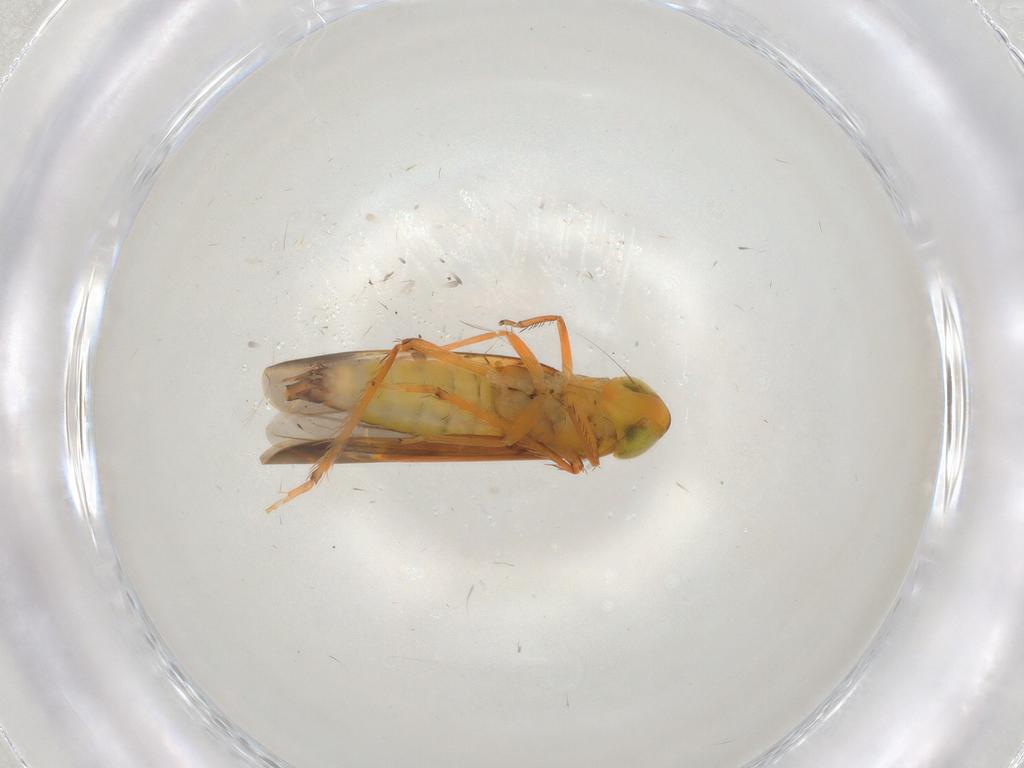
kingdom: Animalia
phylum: Arthropoda
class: Insecta
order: Hemiptera
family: Cicadellidae
